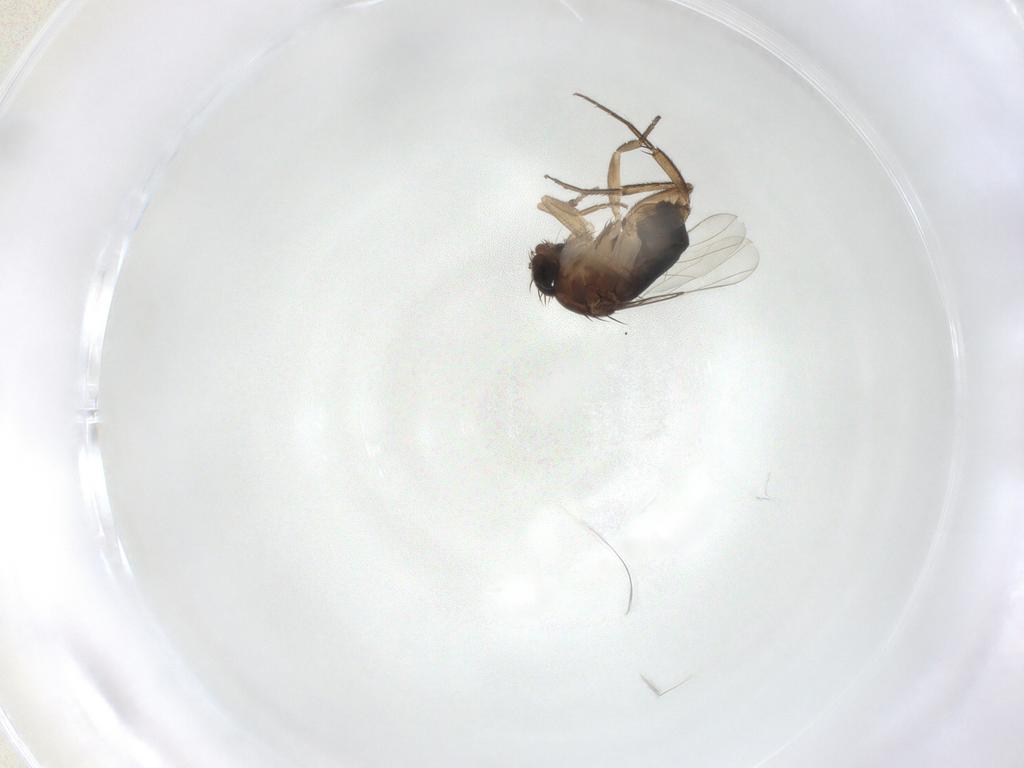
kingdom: Animalia
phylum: Arthropoda
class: Insecta
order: Diptera
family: Phoridae
